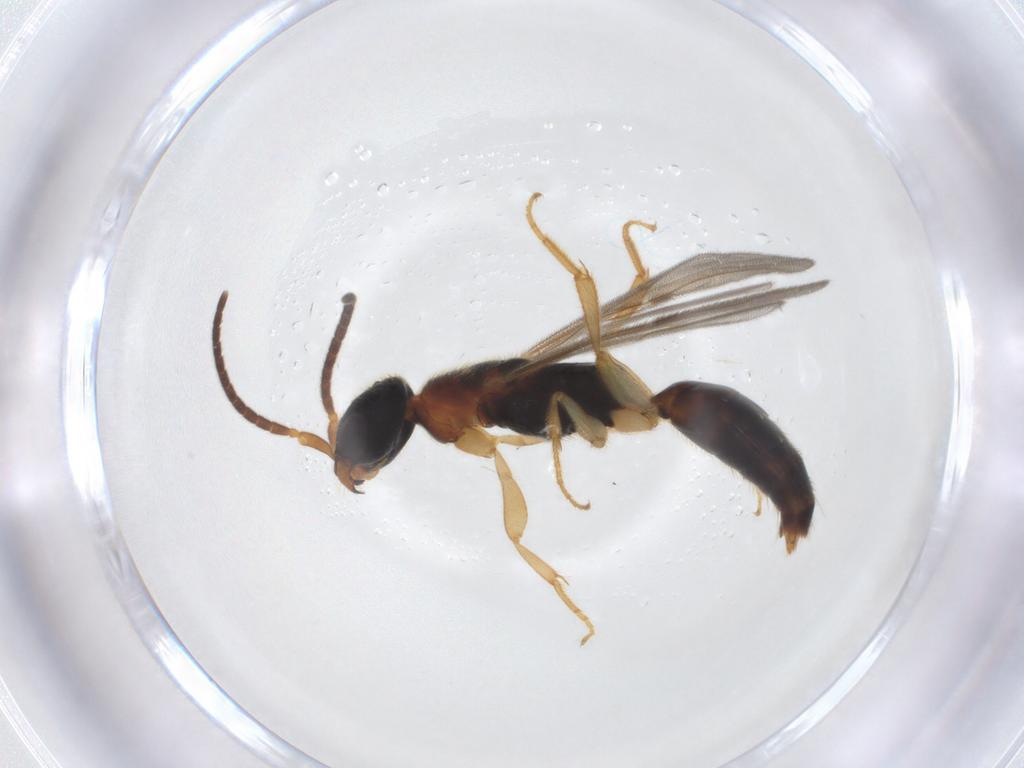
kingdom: Animalia
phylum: Arthropoda
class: Insecta
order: Hymenoptera
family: Bethylidae
